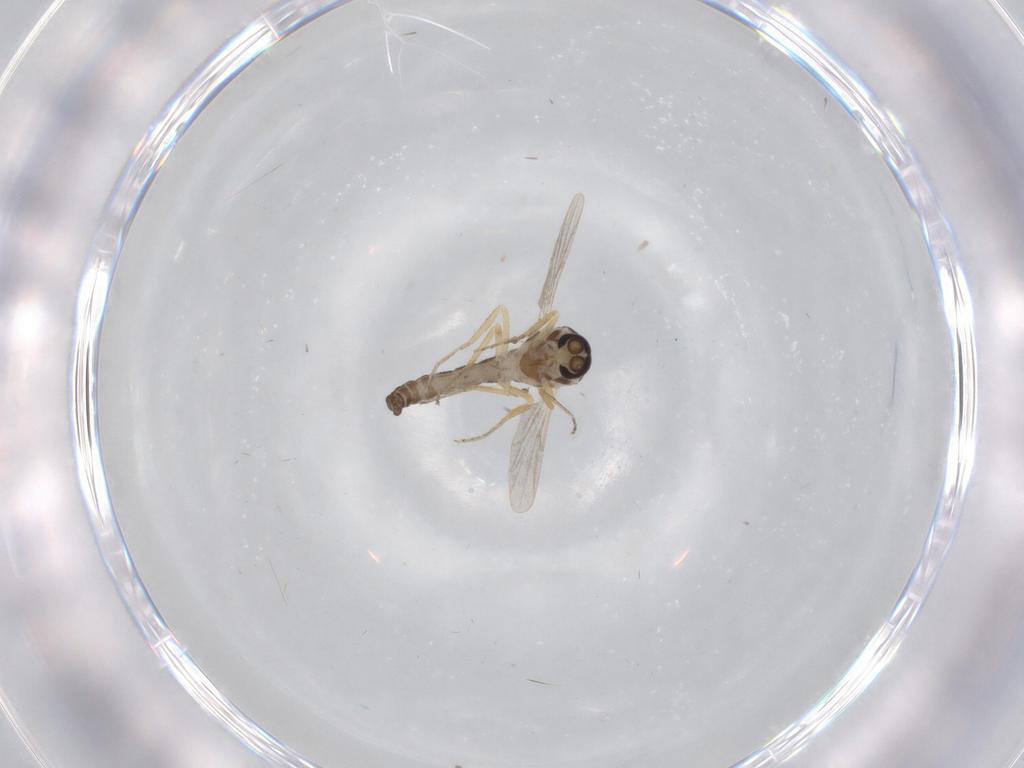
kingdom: Animalia
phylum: Arthropoda
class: Insecta
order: Diptera
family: Ceratopogonidae
